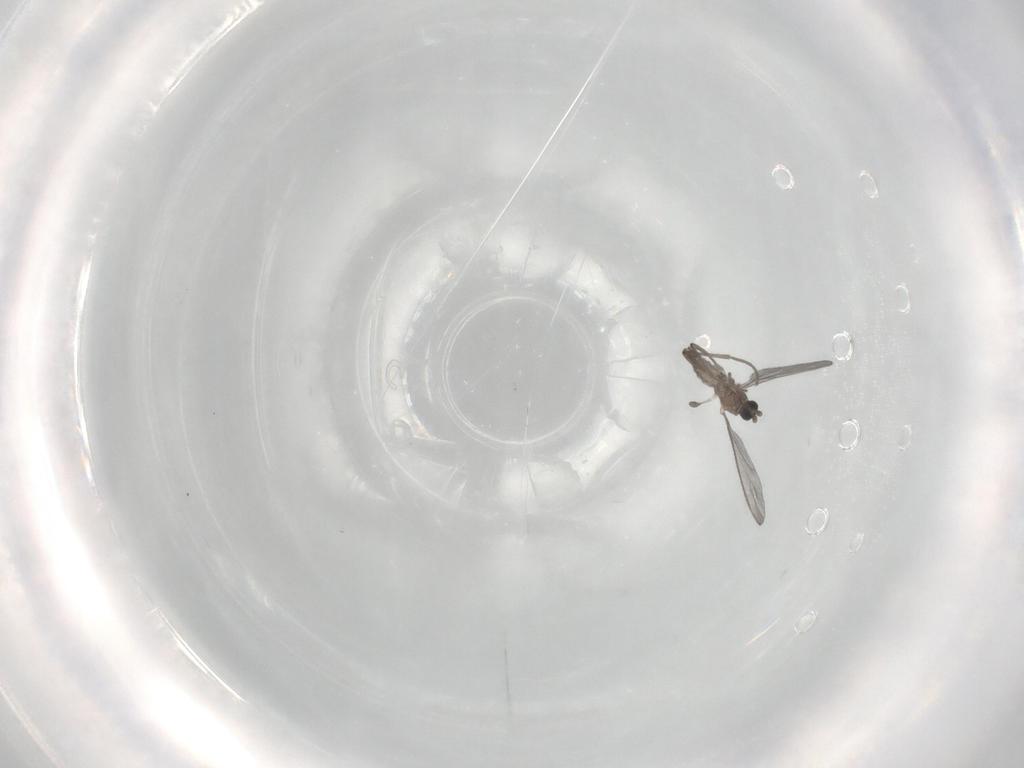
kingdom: Animalia
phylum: Arthropoda
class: Insecta
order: Diptera
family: Sciaridae
